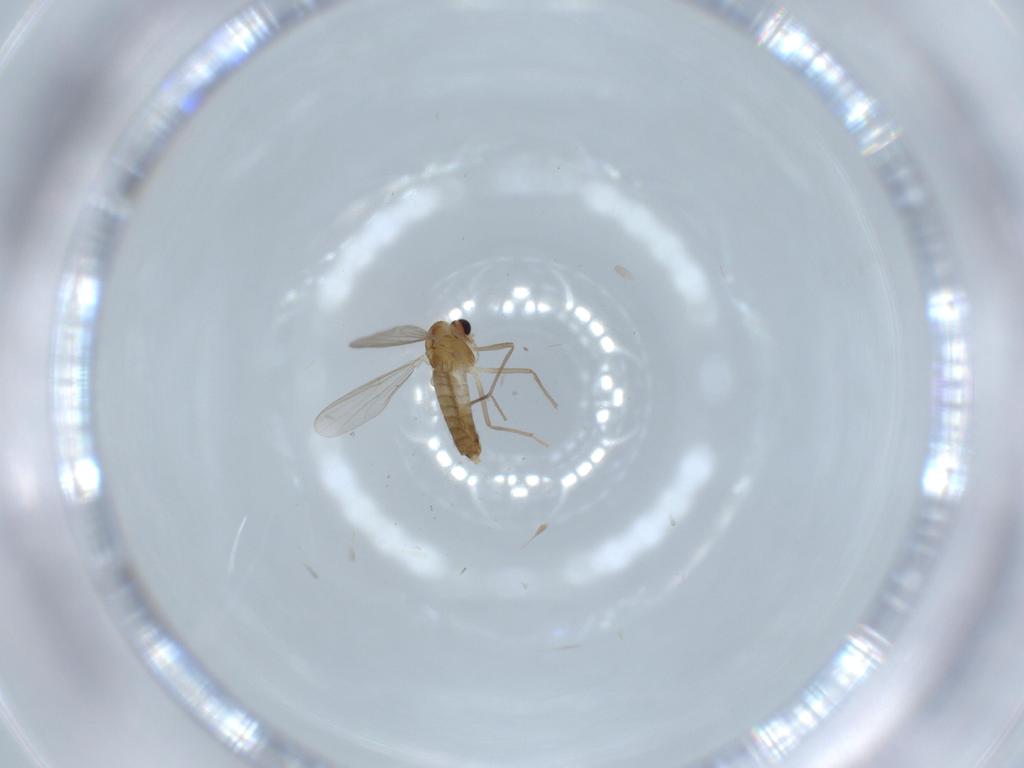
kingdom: Animalia
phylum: Arthropoda
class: Insecta
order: Diptera
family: Chironomidae
